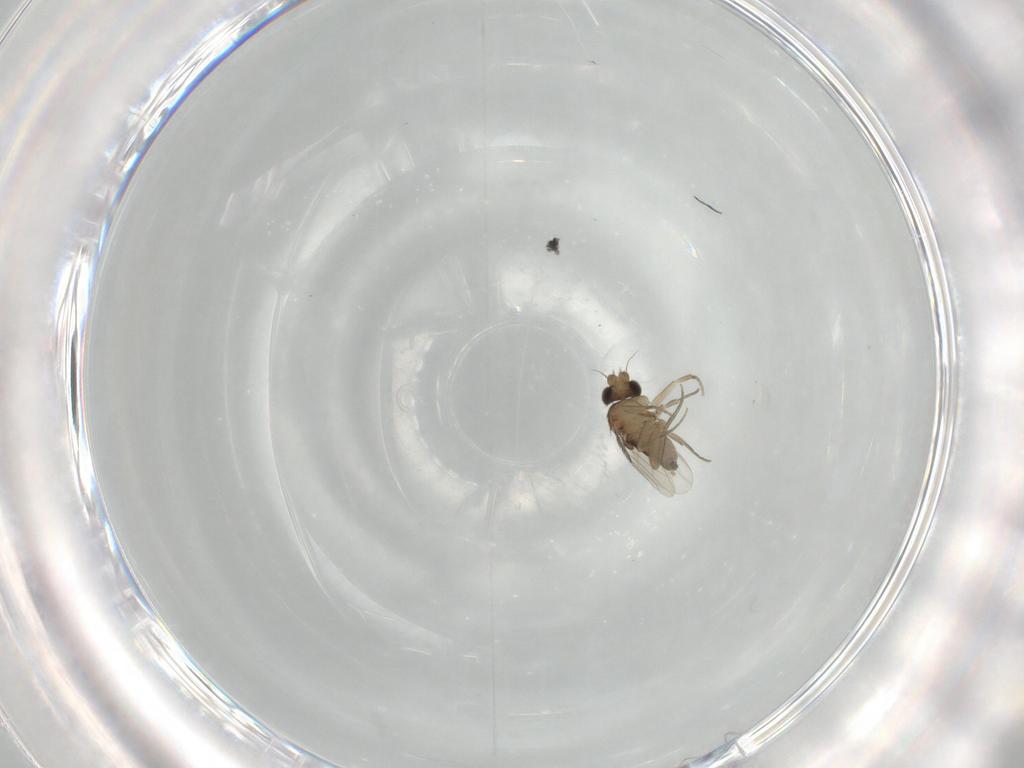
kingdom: Animalia
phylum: Arthropoda
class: Insecta
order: Diptera
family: Phoridae
